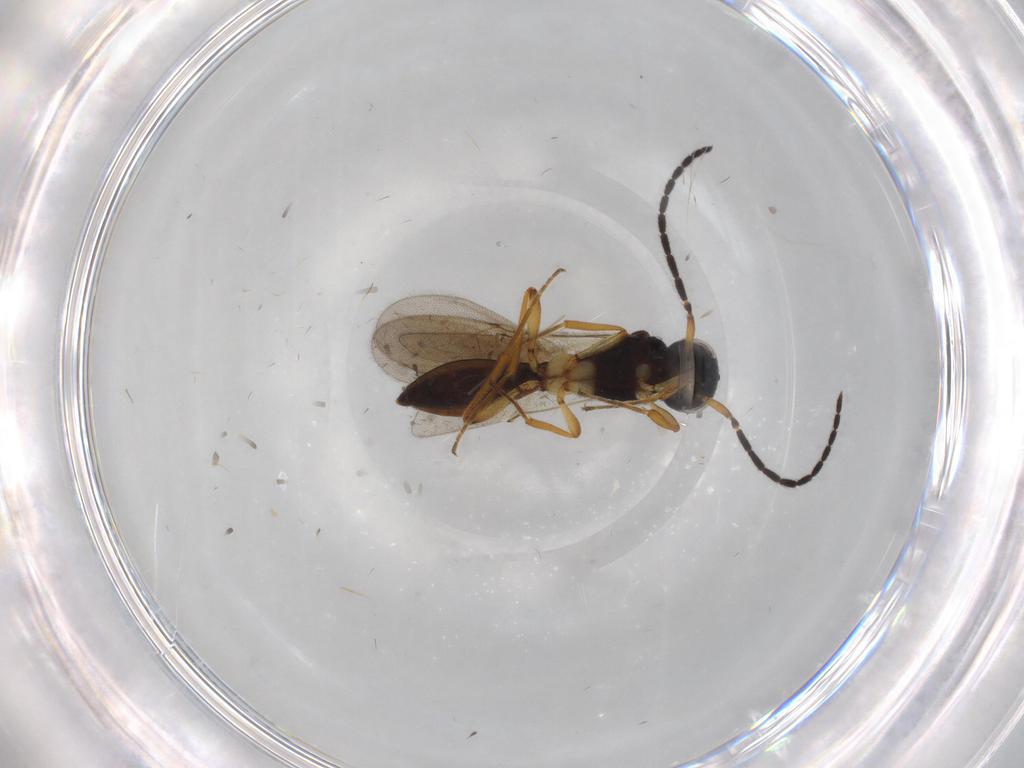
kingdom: Animalia
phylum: Arthropoda
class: Insecta
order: Hymenoptera
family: Scelionidae
